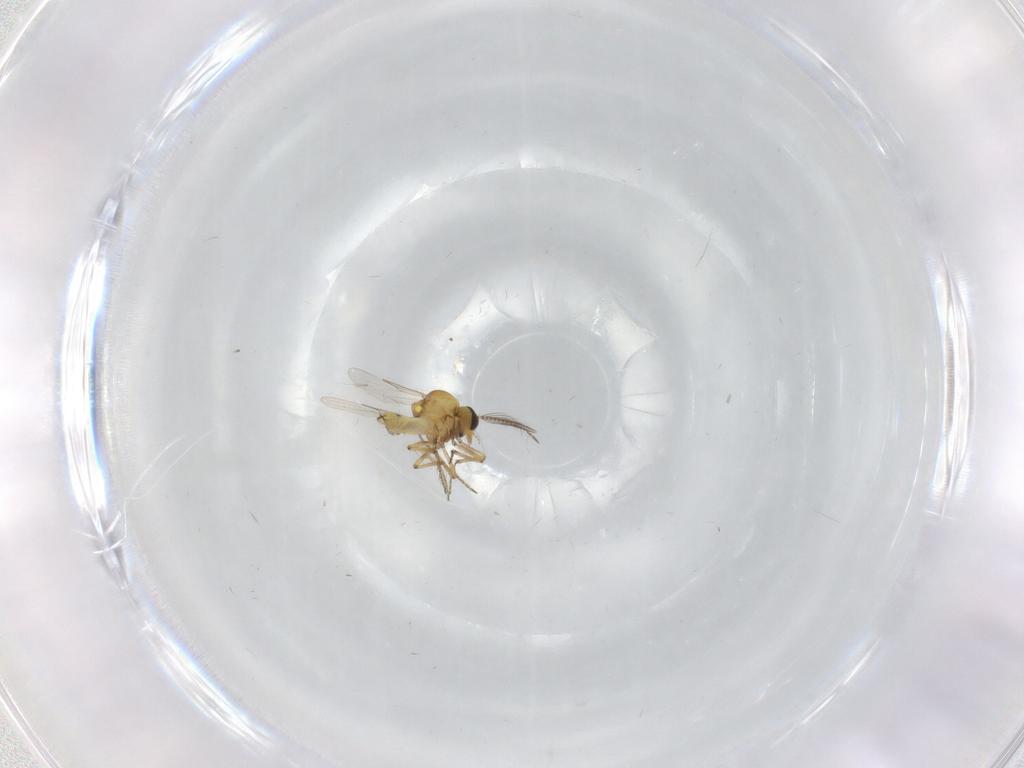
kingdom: Animalia
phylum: Arthropoda
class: Insecta
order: Diptera
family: Ceratopogonidae
